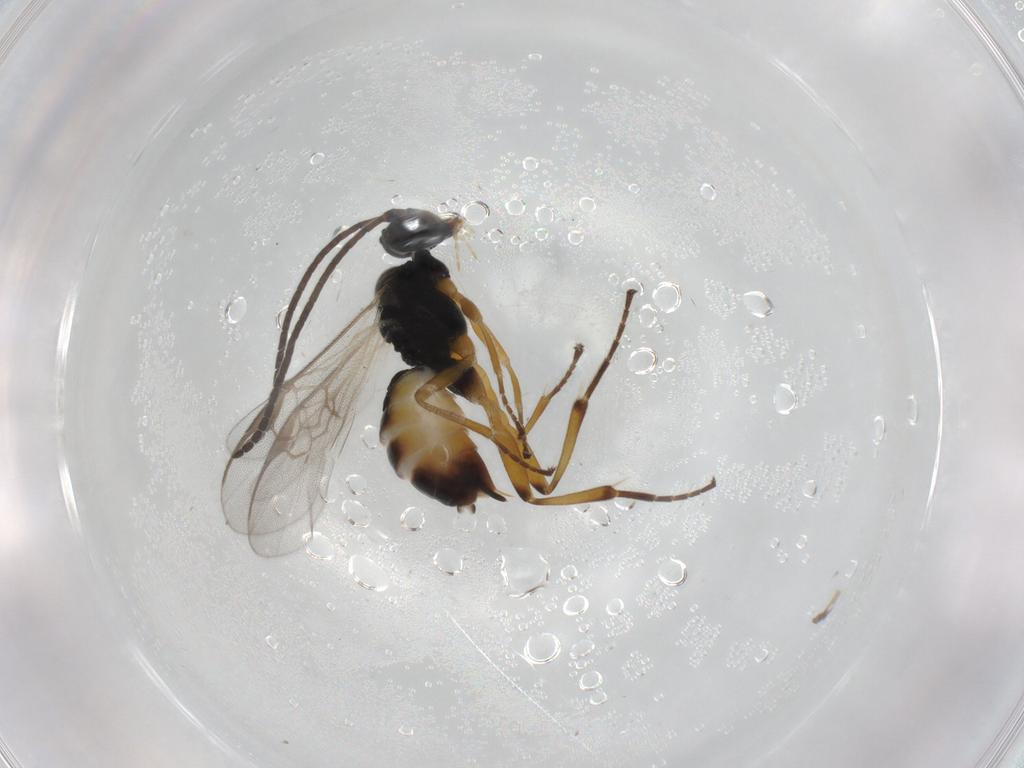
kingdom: Animalia
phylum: Arthropoda
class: Insecta
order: Hymenoptera
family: Braconidae
